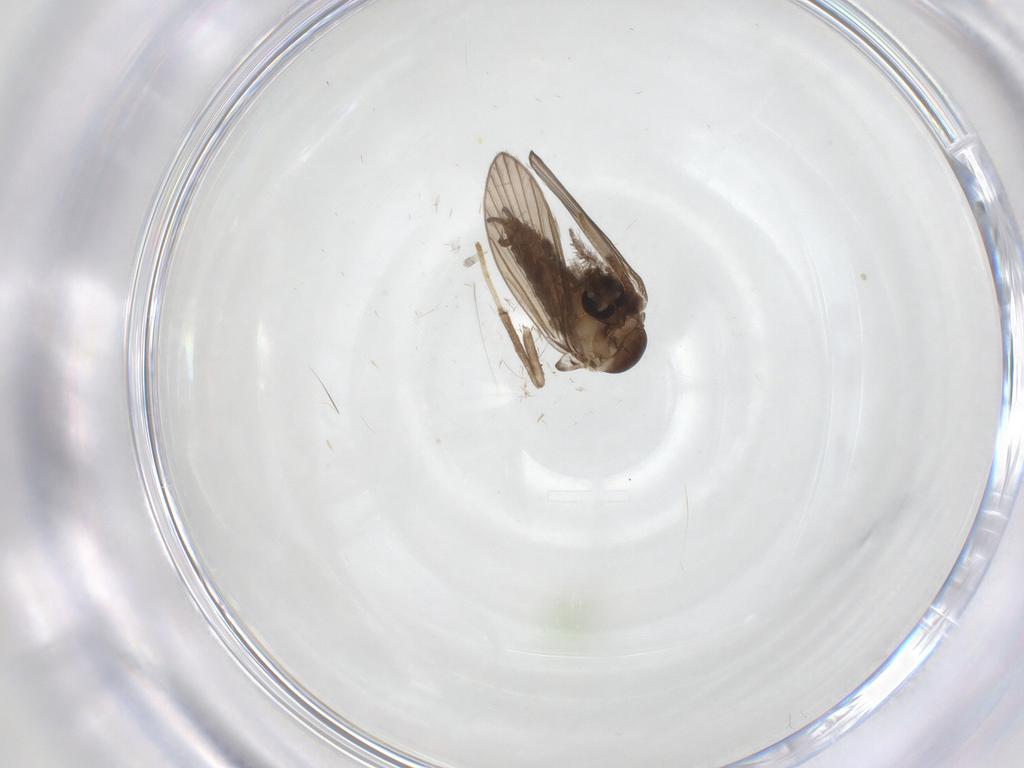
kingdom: Animalia
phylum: Arthropoda
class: Insecta
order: Diptera
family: Psychodidae
